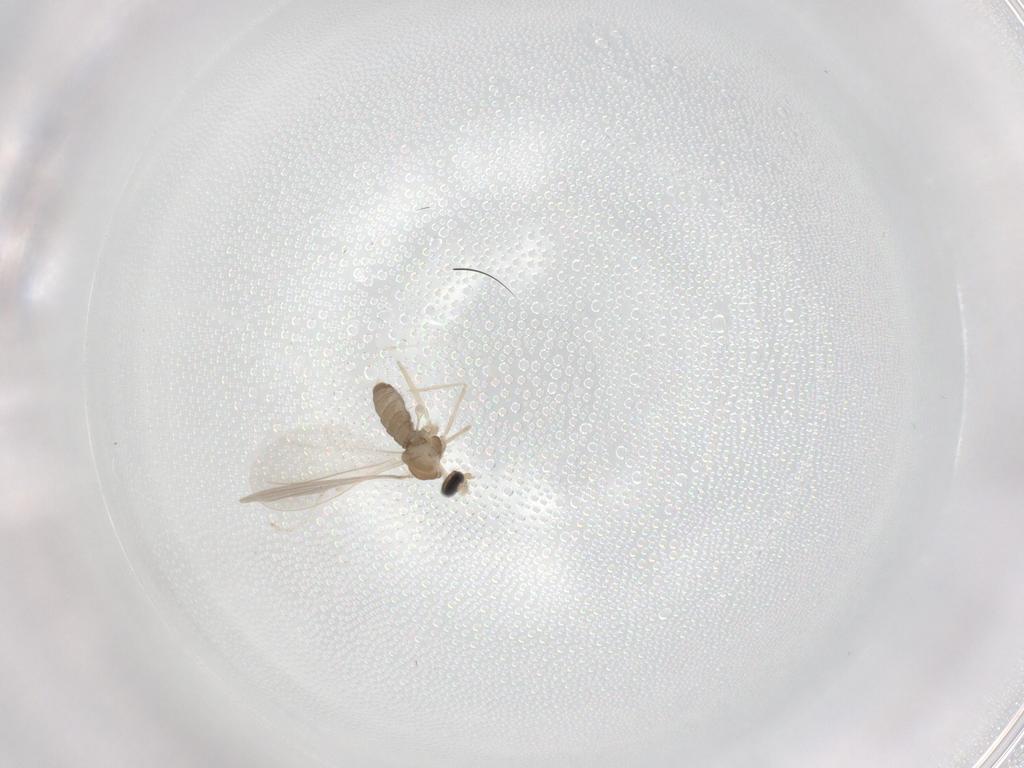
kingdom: Animalia
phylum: Arthropoda
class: Insecta
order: Diptera
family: Cecidomyiidae
